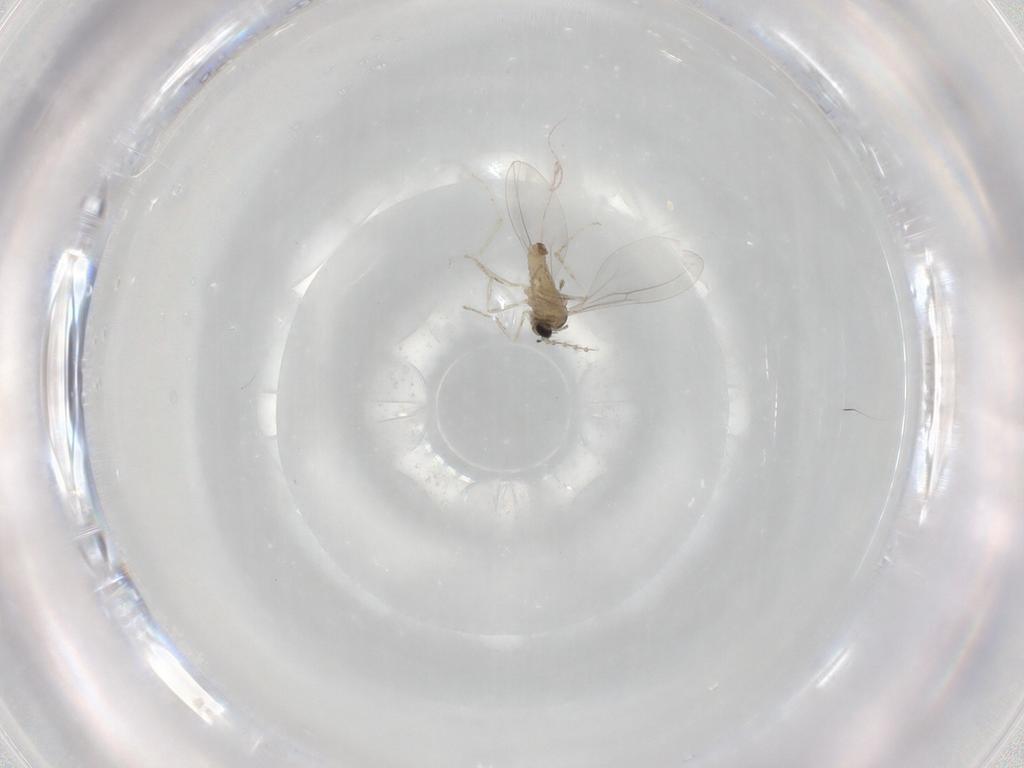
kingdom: Animalia
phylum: Arthropoda
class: Insecta
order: Diptera
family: Cecidomyiidae
